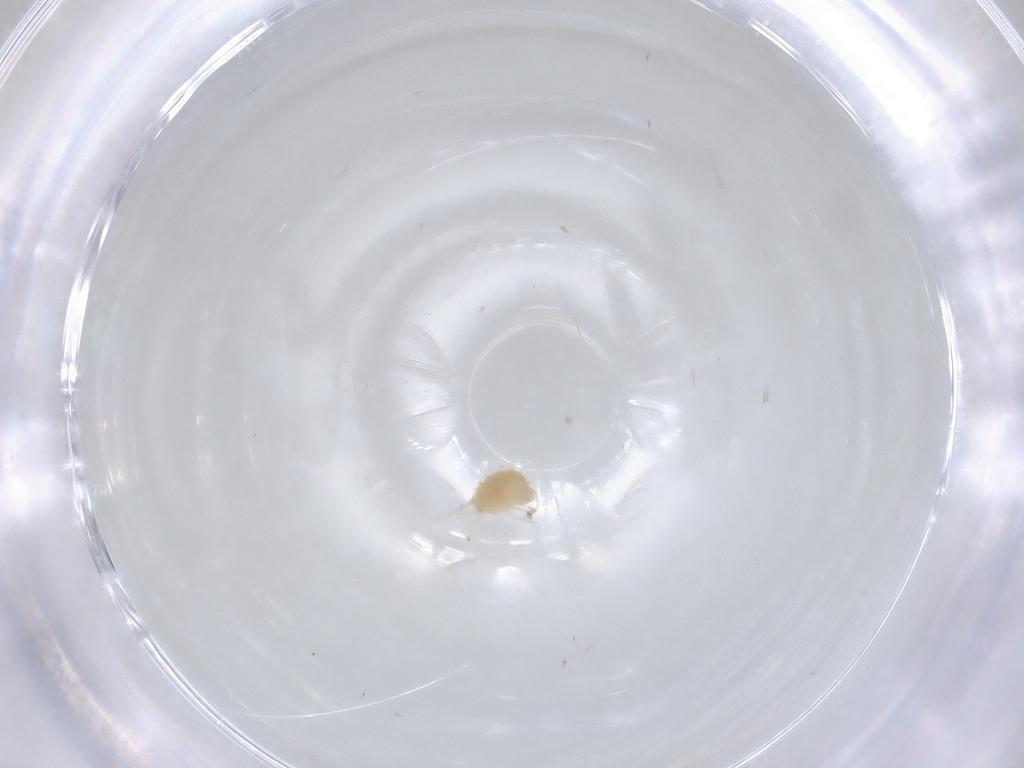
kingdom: Animalia
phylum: Arthropoda
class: Arachnida
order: Trombidiformes
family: Tetranychidae
